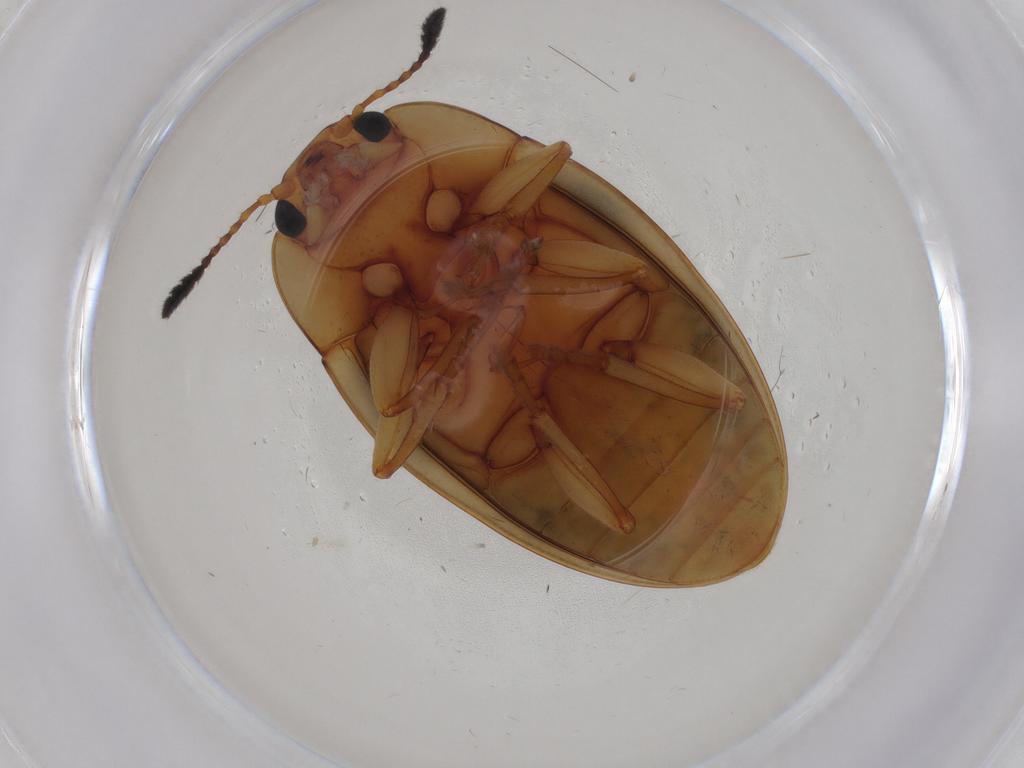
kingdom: Animalia
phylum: Arthropoda
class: Insecta
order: Coleoptera
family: Erotylidae
